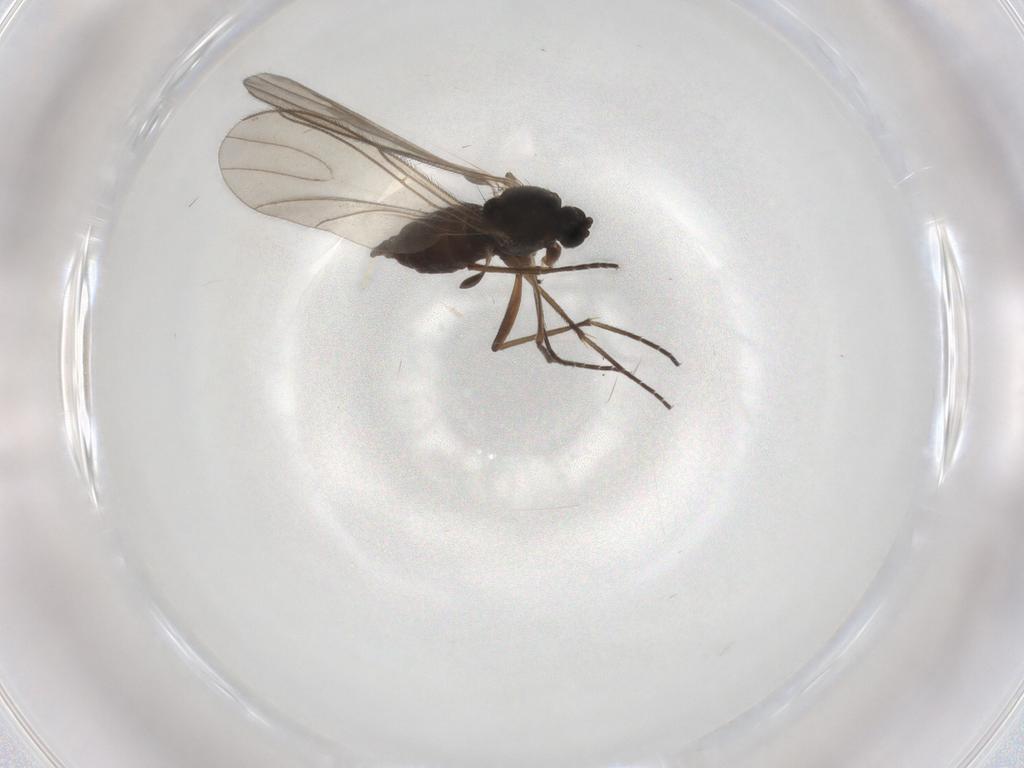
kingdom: Animalia
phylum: Arthropoda
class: Insecta
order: Diptera
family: Sciaridae
